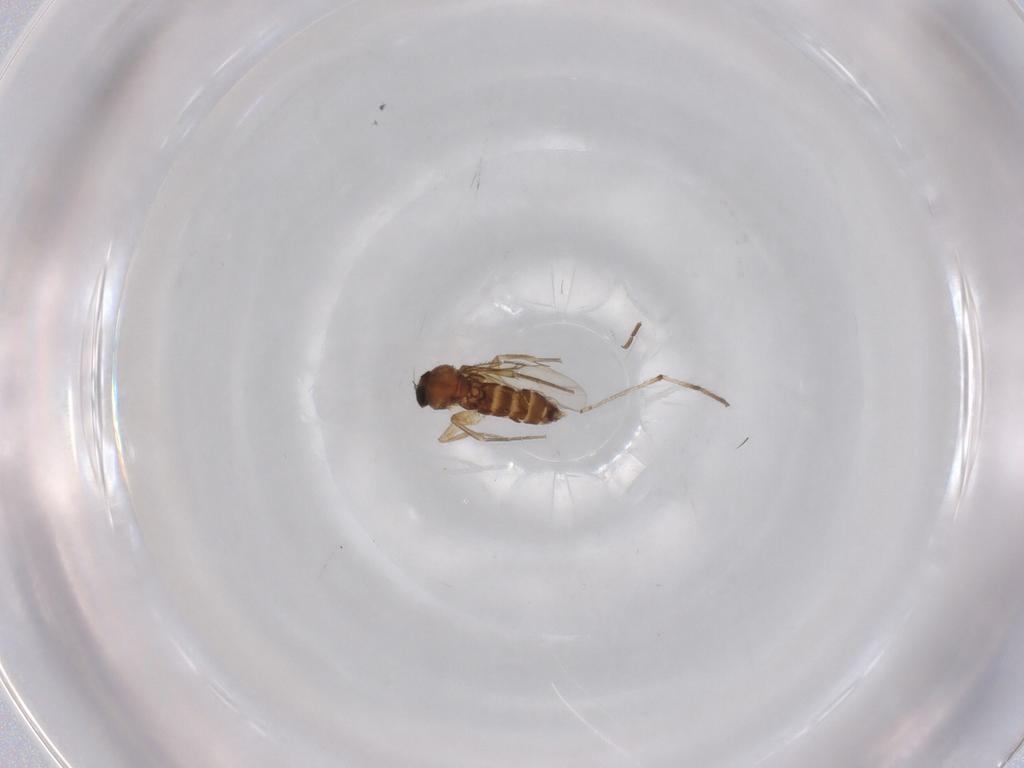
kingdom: Animalia
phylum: Arthropoda
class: Insecta
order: Diptera
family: Phoridae
